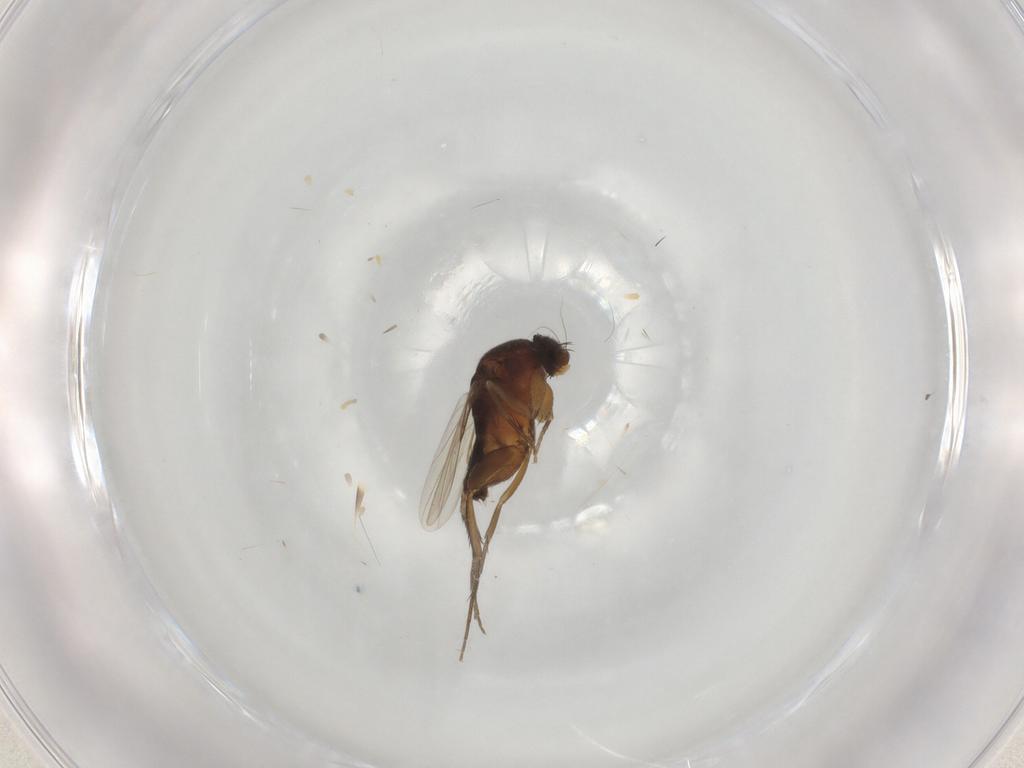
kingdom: Animalia
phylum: Arthropoda
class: Insecta
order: Diptera
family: Phoridae
